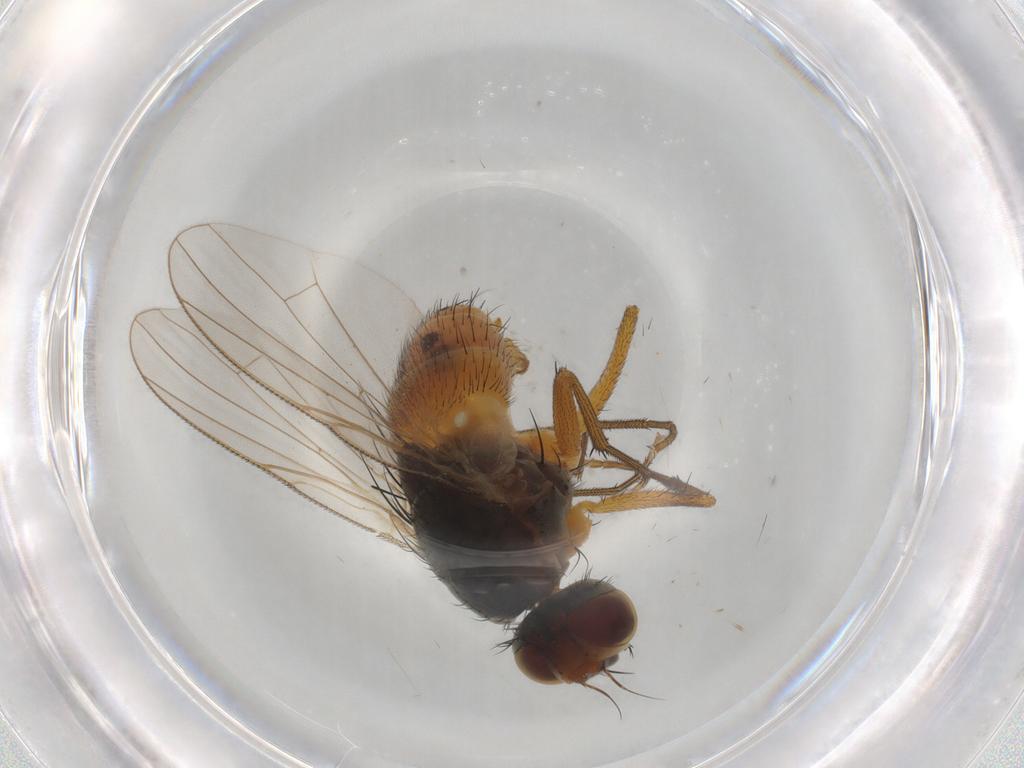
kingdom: Animalia
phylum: Arthropoda
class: Insecta
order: Diptera
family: Muscidae
